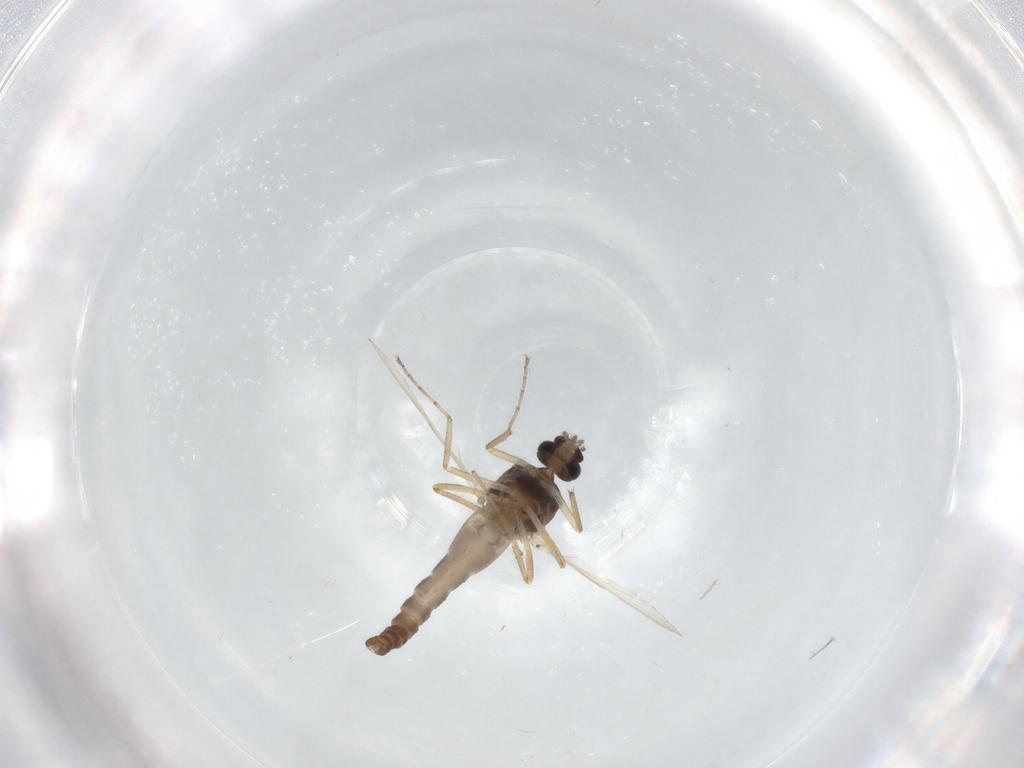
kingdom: Animalia
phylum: Arthropoda
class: Insecta
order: Diptera
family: Ceratopogonidae
